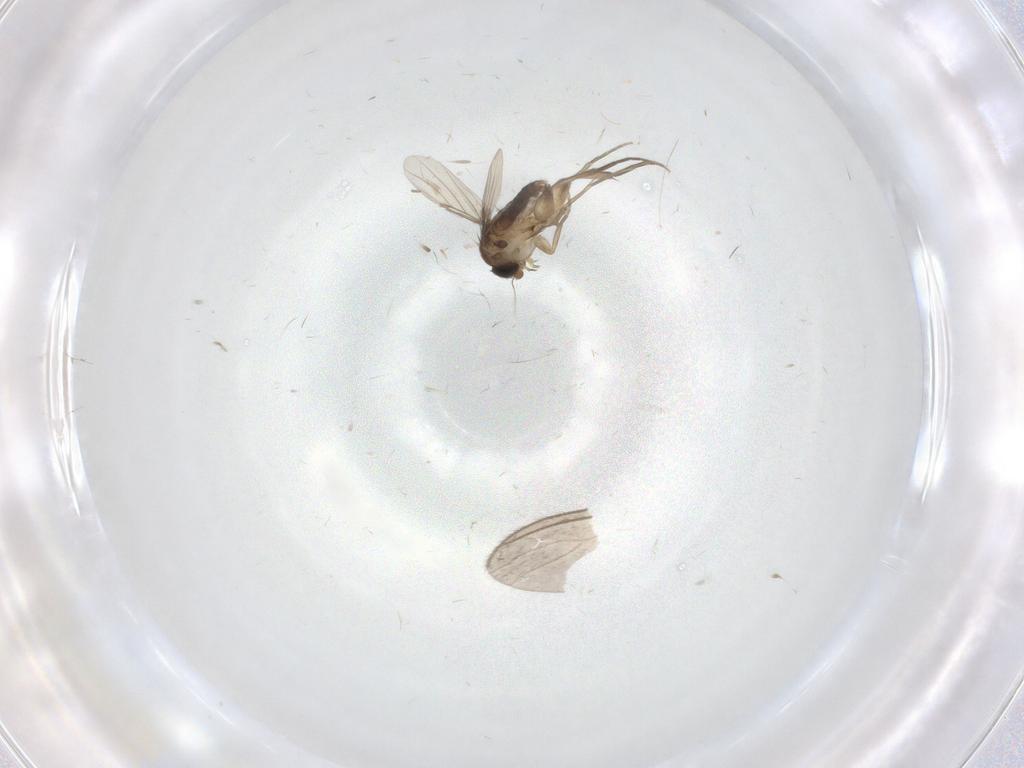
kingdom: Animalia
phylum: Arthropoda
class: Insecta
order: Diptera
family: Sciaridae
